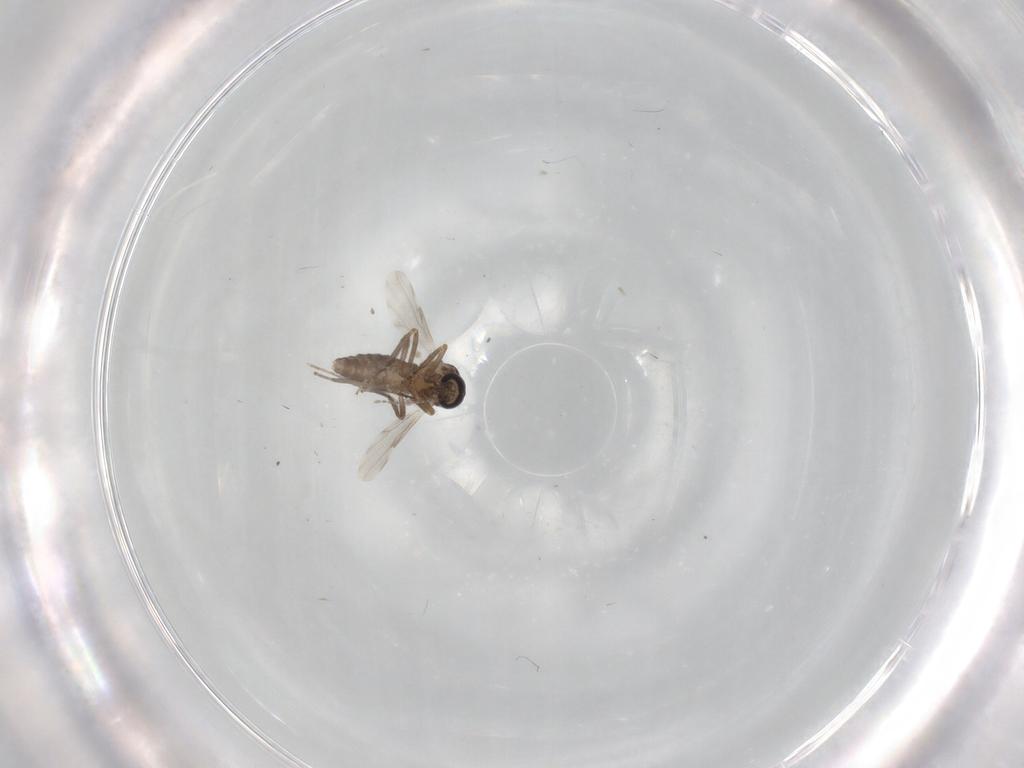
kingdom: Animalia
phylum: Arthropoda
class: Insecta
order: Diptera
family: Ceratopogonidae
